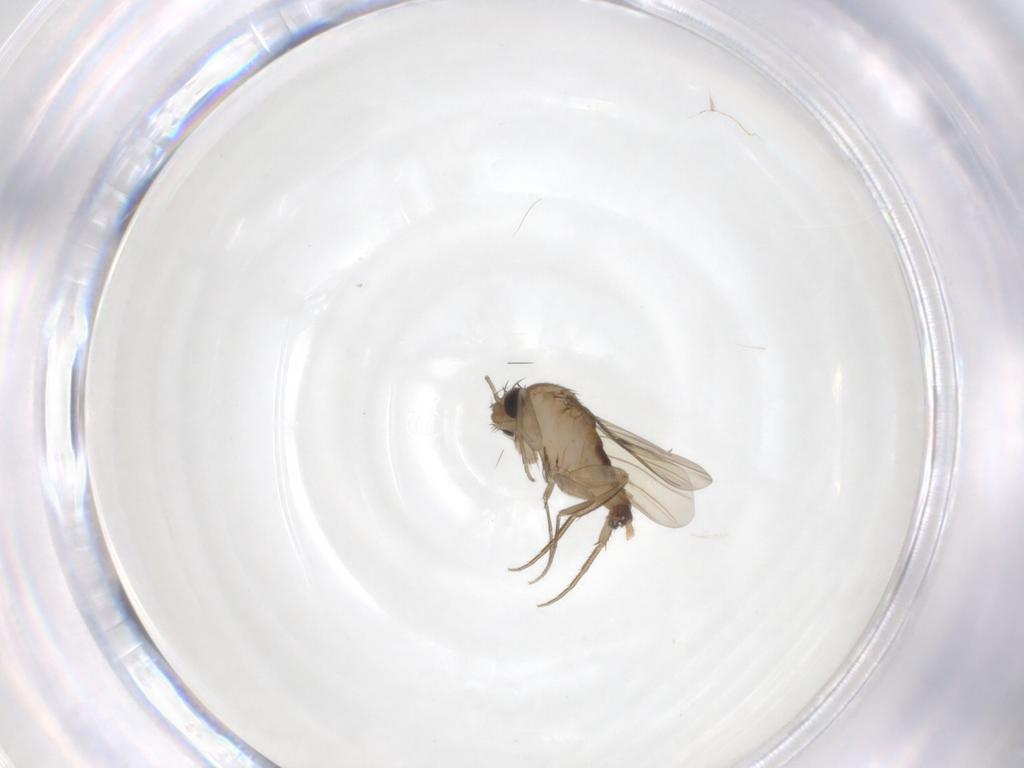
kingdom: Animalia
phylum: Arthropoda
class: Insecta
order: Diptera
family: Phoridae
